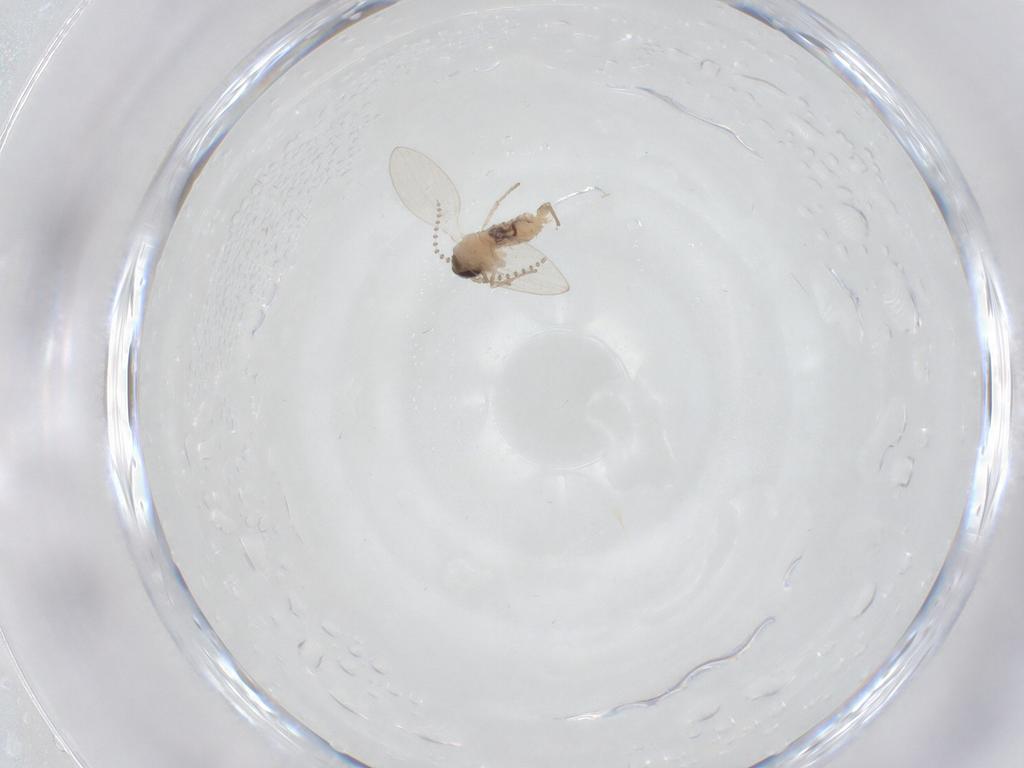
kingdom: Animalia
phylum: Arthropoda
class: Insecta
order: Diptera
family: Psychodidae
